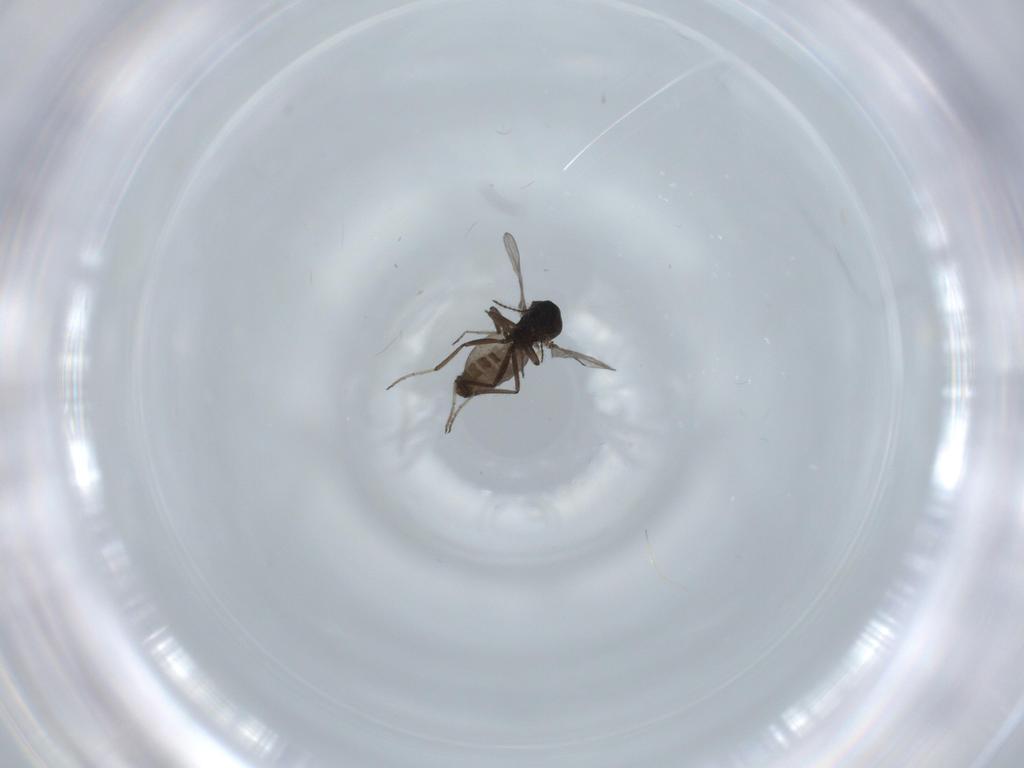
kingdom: Animalia
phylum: Arthropoda
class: Insecta
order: Diptera
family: Ceratopogonidae
